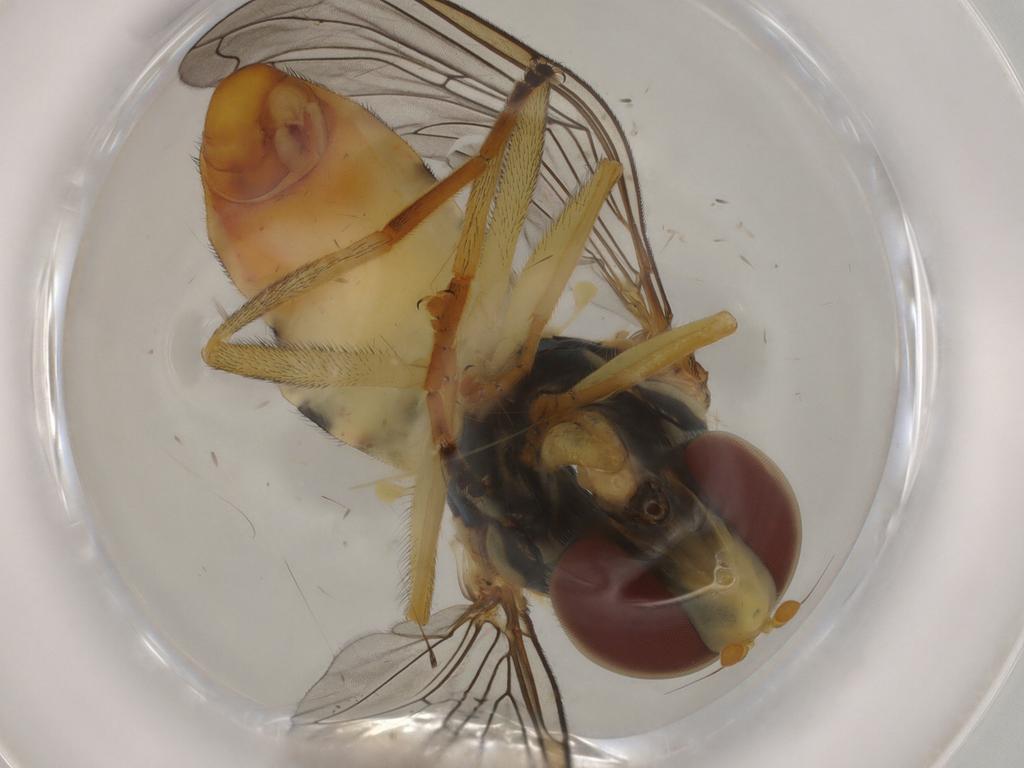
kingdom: Animalia
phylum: Arthropoda
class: Insecta
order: Diptera
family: Syrphidae
